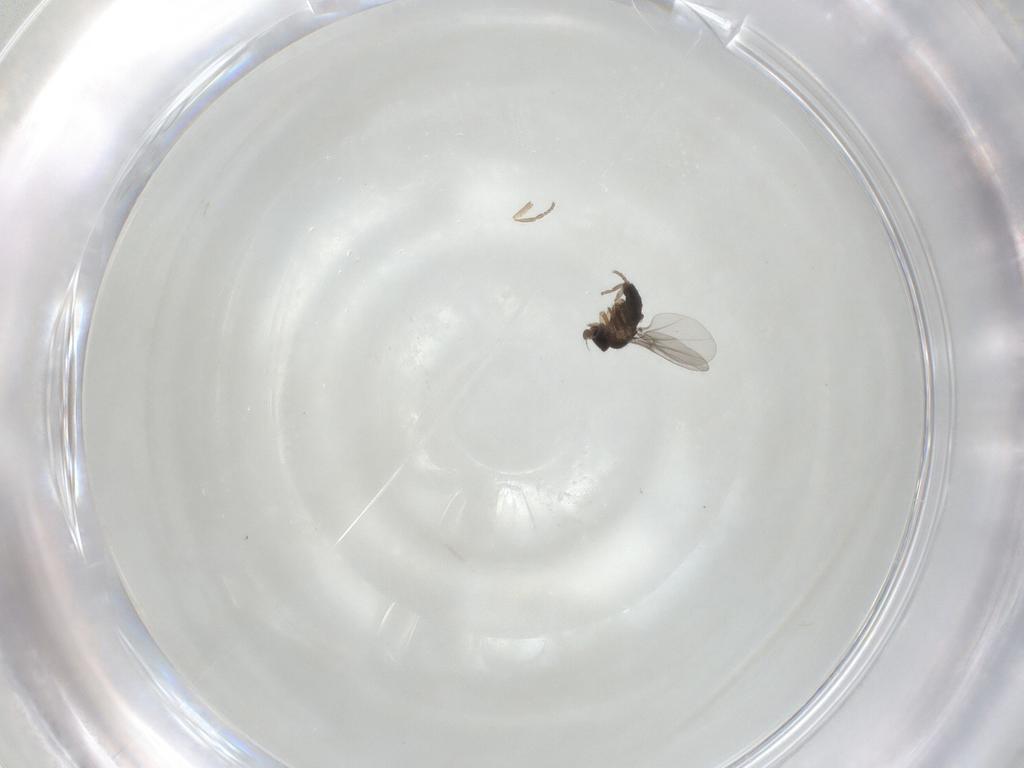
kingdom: Animalia
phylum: Arthropoda
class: Insecta
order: Diptera
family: Phoridae
